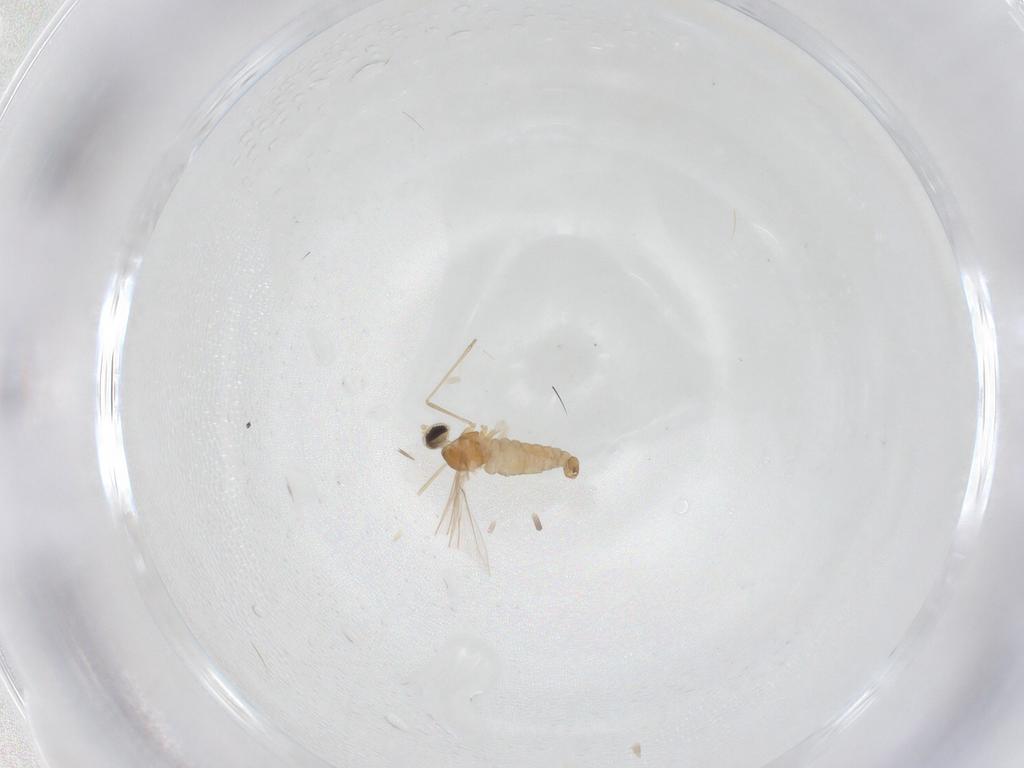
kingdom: Animalia
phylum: Arthropoda
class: Insecta
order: Diptera
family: Cecidomyiidae
